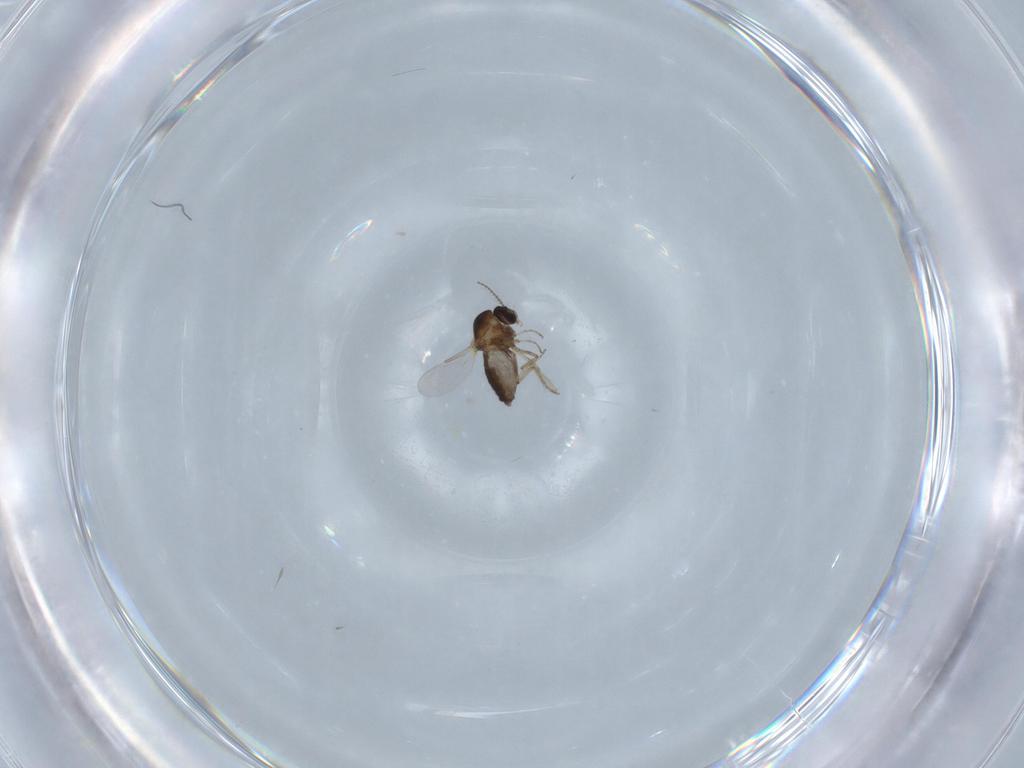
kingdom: Animalia
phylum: Arthropoda
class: Insecta
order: Diptera
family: Ceratopogonidae
